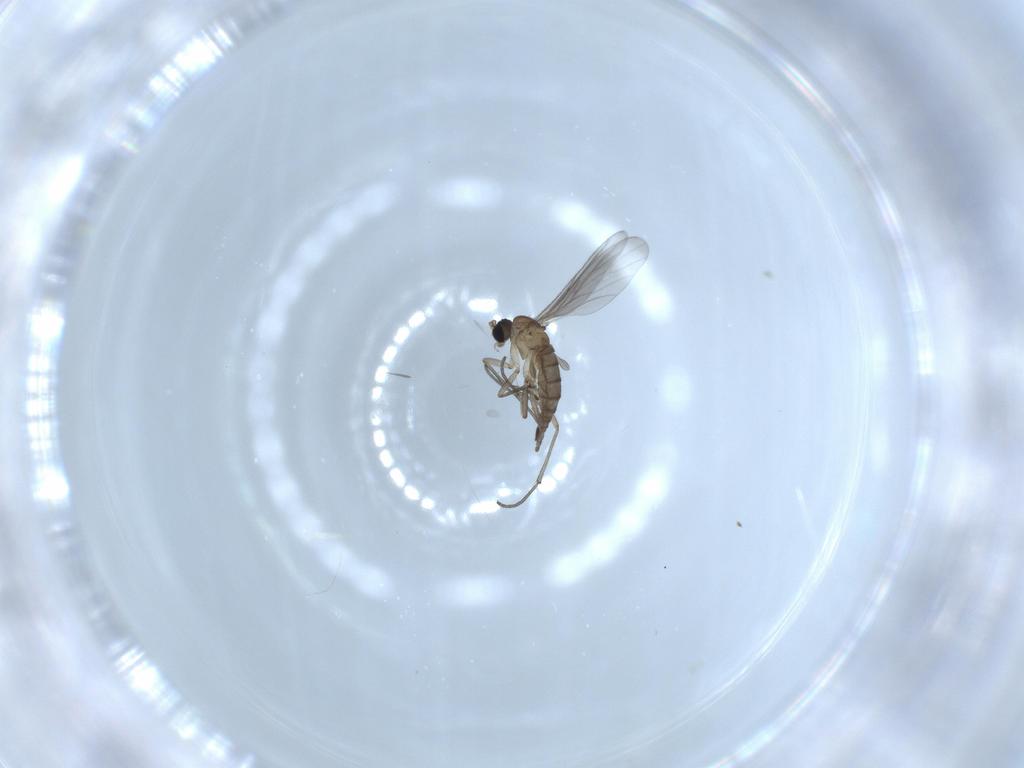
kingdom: Animalia
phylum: Arthropoda
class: Insecta
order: Diptera
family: Sciaridae
